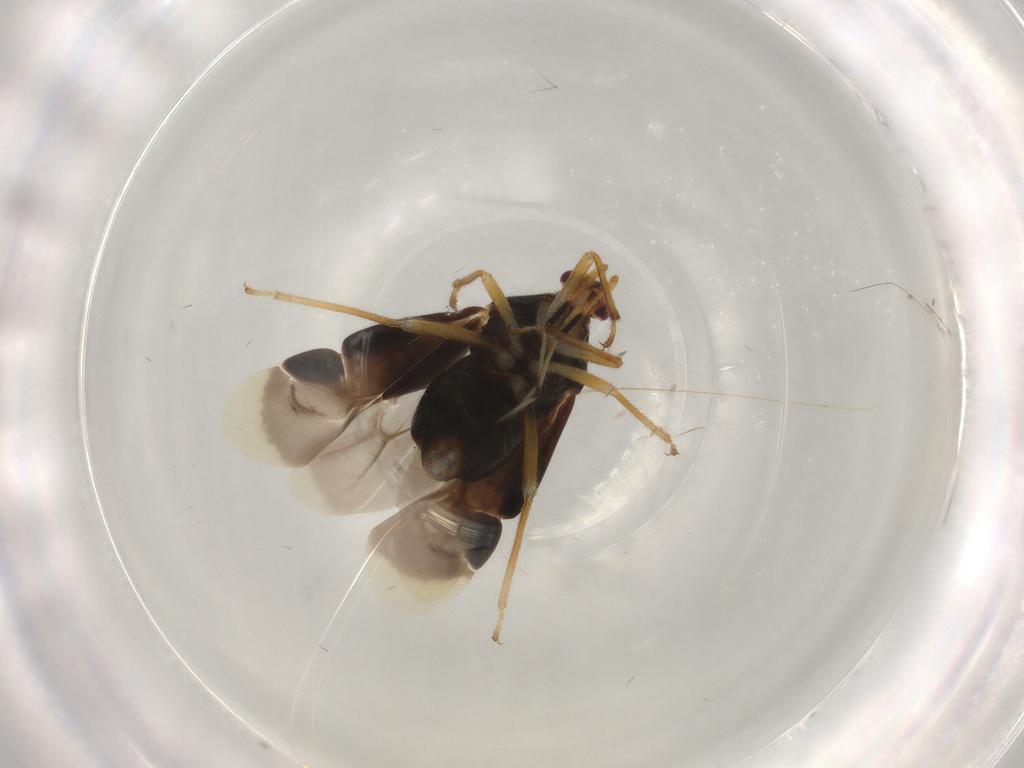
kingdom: Animalia
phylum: Arthropoda
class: Insecta
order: Hemiptera
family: Miridae
